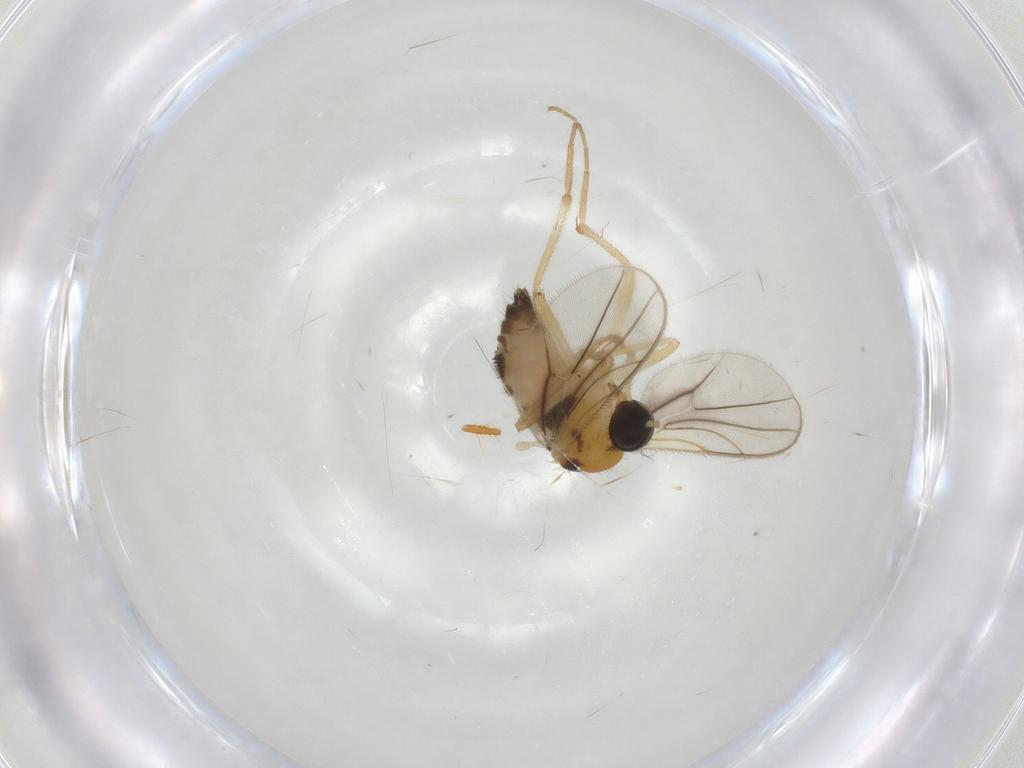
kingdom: Animalia
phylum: Arthropoda
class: Insecta
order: Diptera
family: Hybotidae
